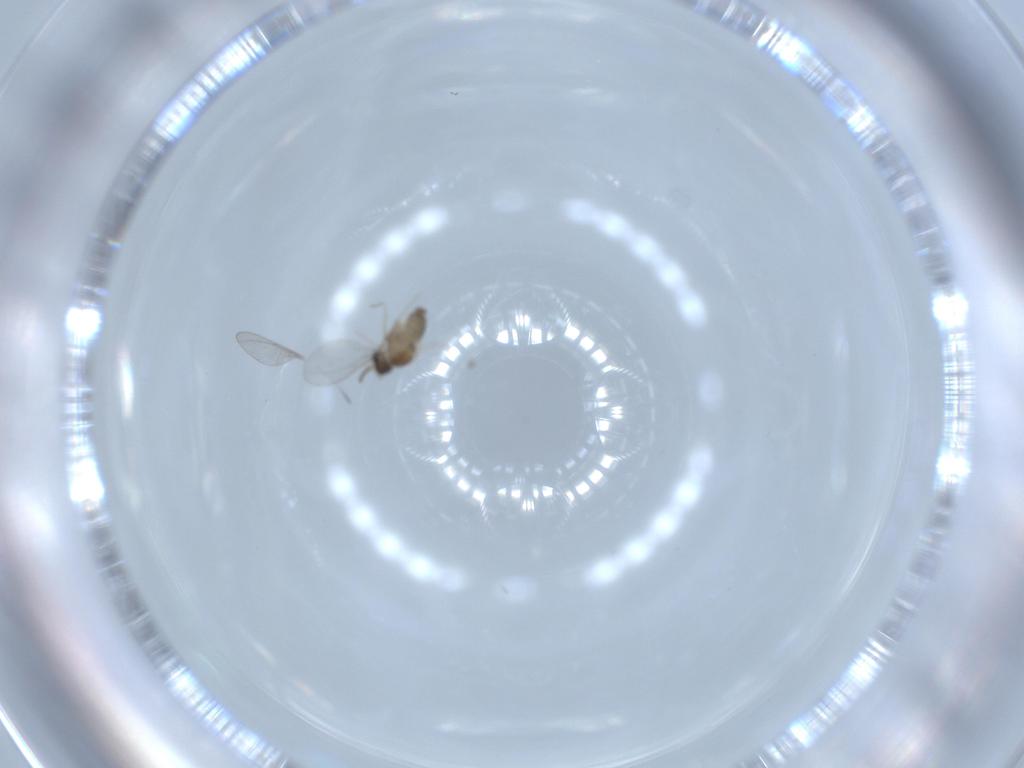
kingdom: Animalia
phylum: Arthropoda
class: Insecta
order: Diptera
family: Cecidomyiidae
